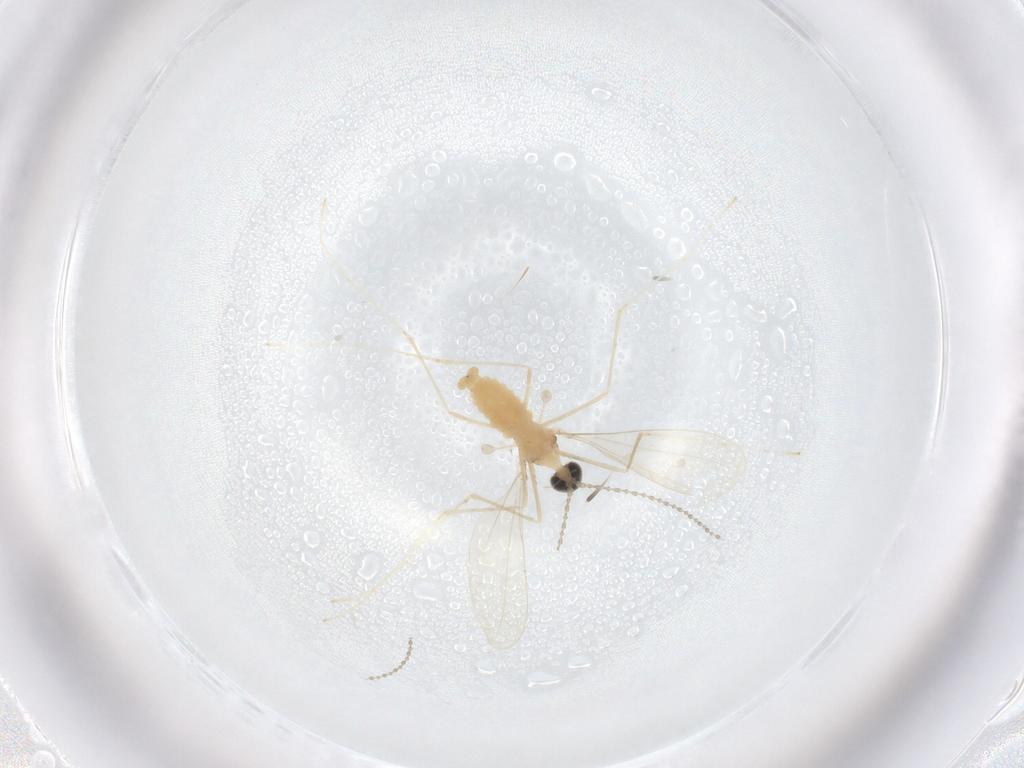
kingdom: Animalia
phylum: Arthropoda
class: Insecta
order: Diptera
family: Cecidomyiidae
